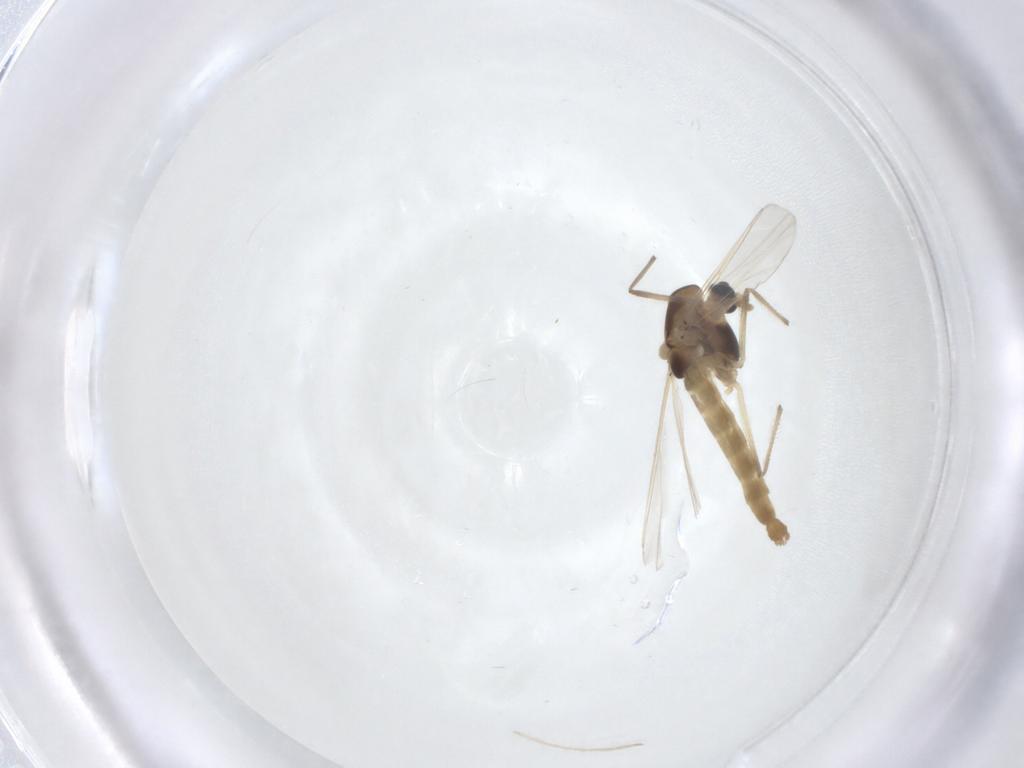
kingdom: Animalia
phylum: Arthropoda
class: Insecta
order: Diptera
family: Chironomidae
